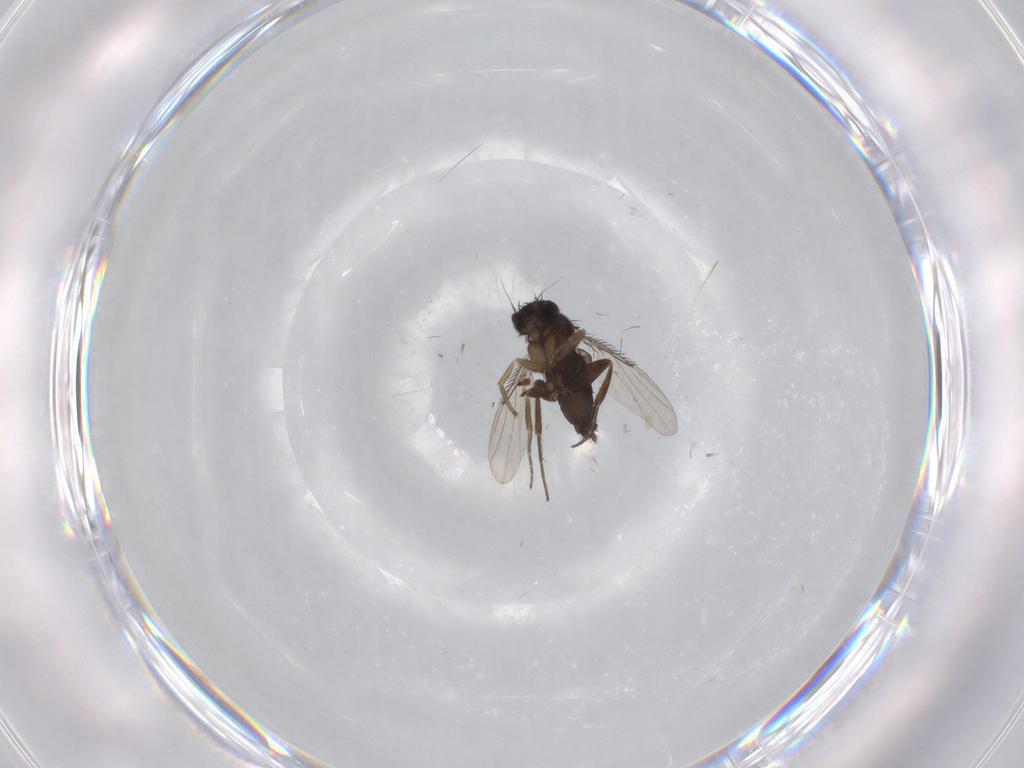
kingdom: Animalia
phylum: Arthropoda
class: Insecta
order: Diptera
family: Phoridae
